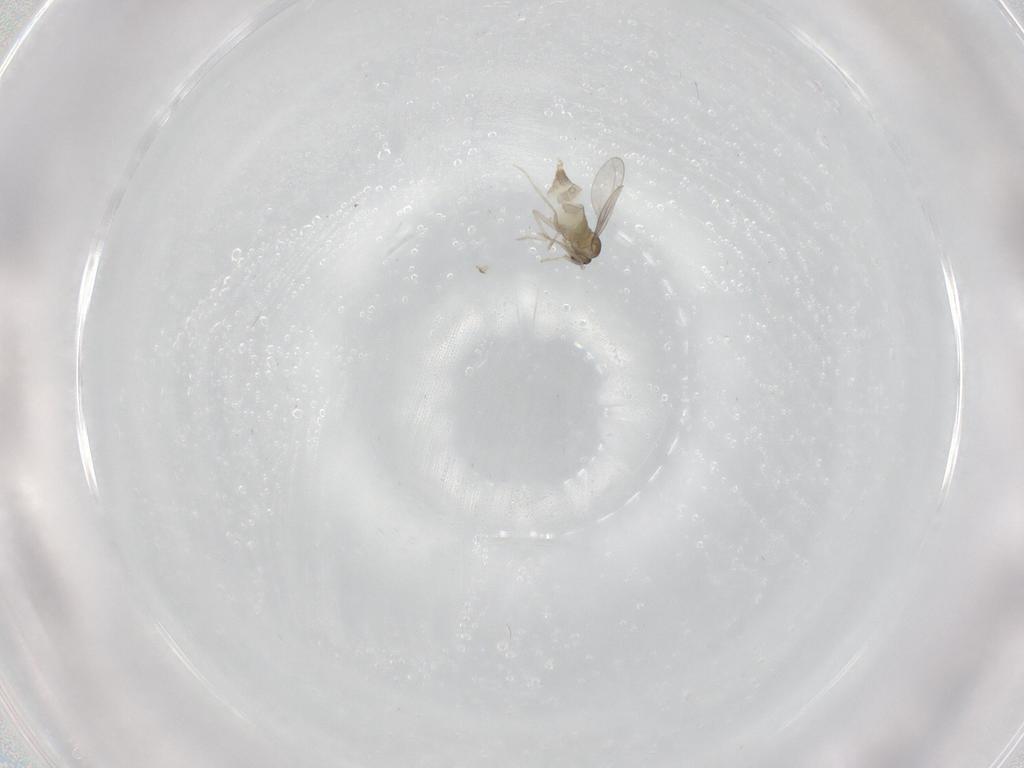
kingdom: Animalia
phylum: Arthropoda
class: Insecta
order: Diptera
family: Cecidomyiidae
